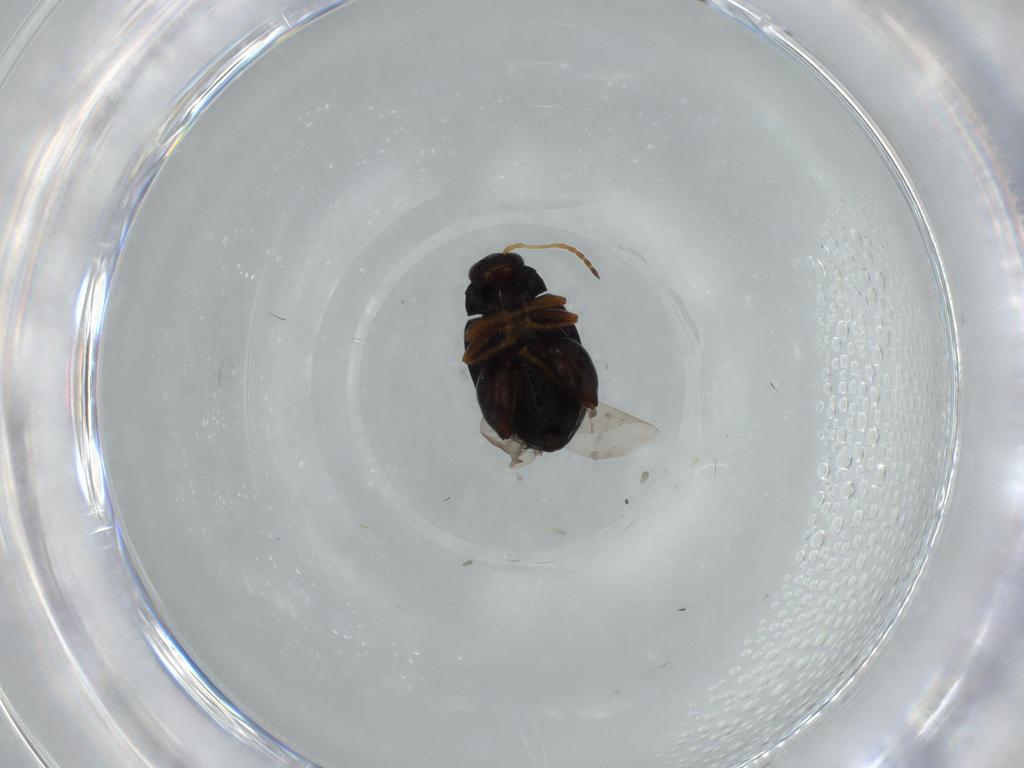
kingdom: Animalia
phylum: Arthropoda
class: Insecta
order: Coleoptera
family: Chrysomelidae
